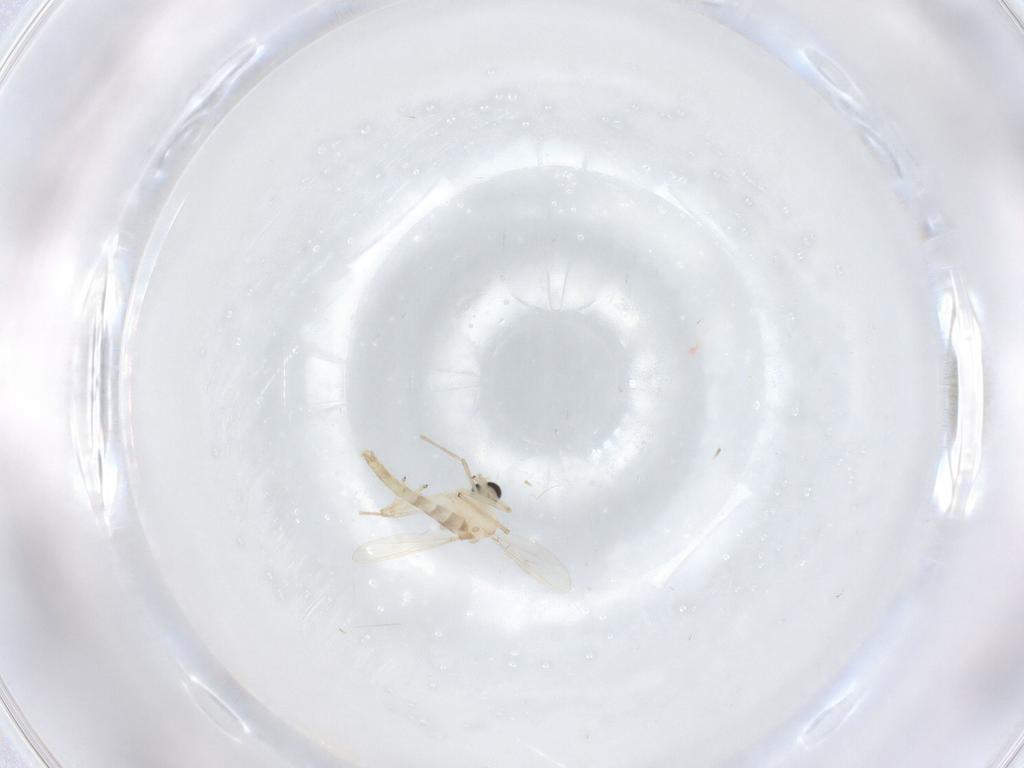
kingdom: Animalia
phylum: Arthropoda
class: Insecta
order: Diptera
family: Chironomidae
